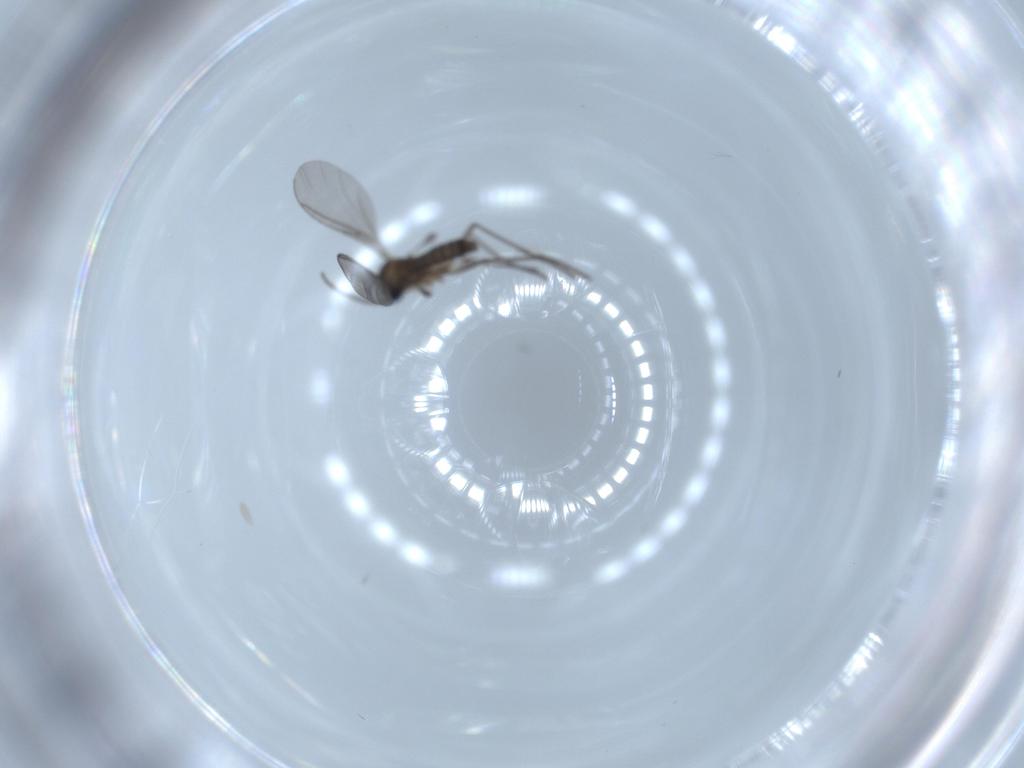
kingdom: Animalia
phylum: Arthropoda
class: Insecta
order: Diptera
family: Sciaridae
